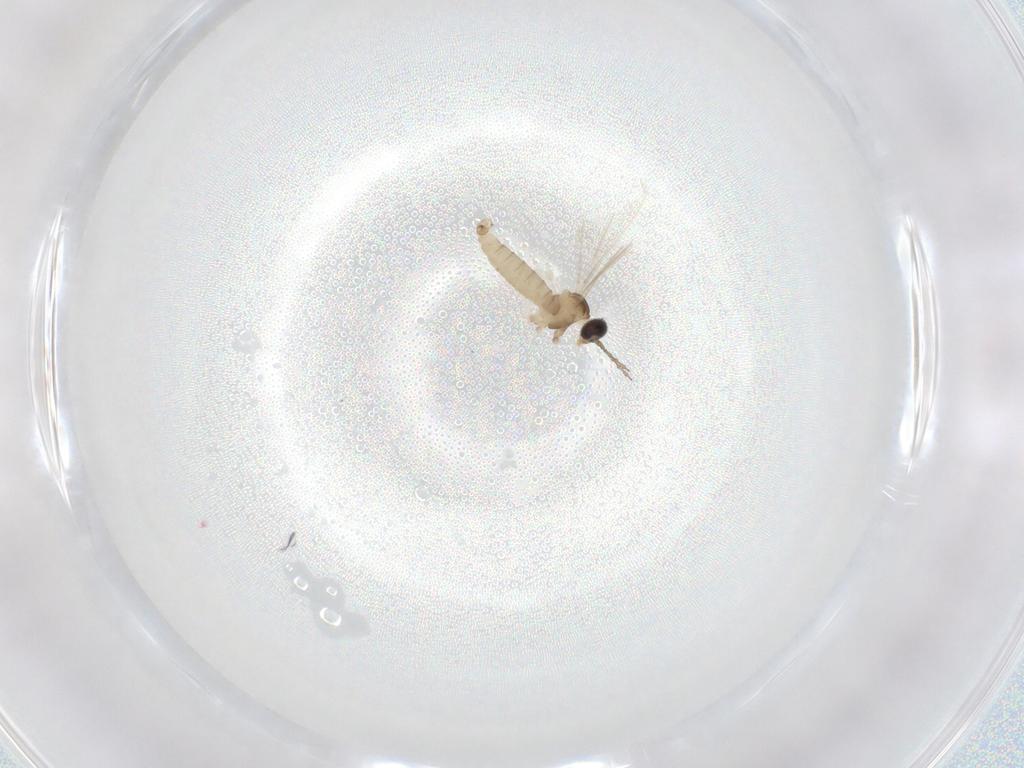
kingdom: Animalia
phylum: Arthropoda
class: Insecta
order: Diptera
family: Cecidomyiidae
